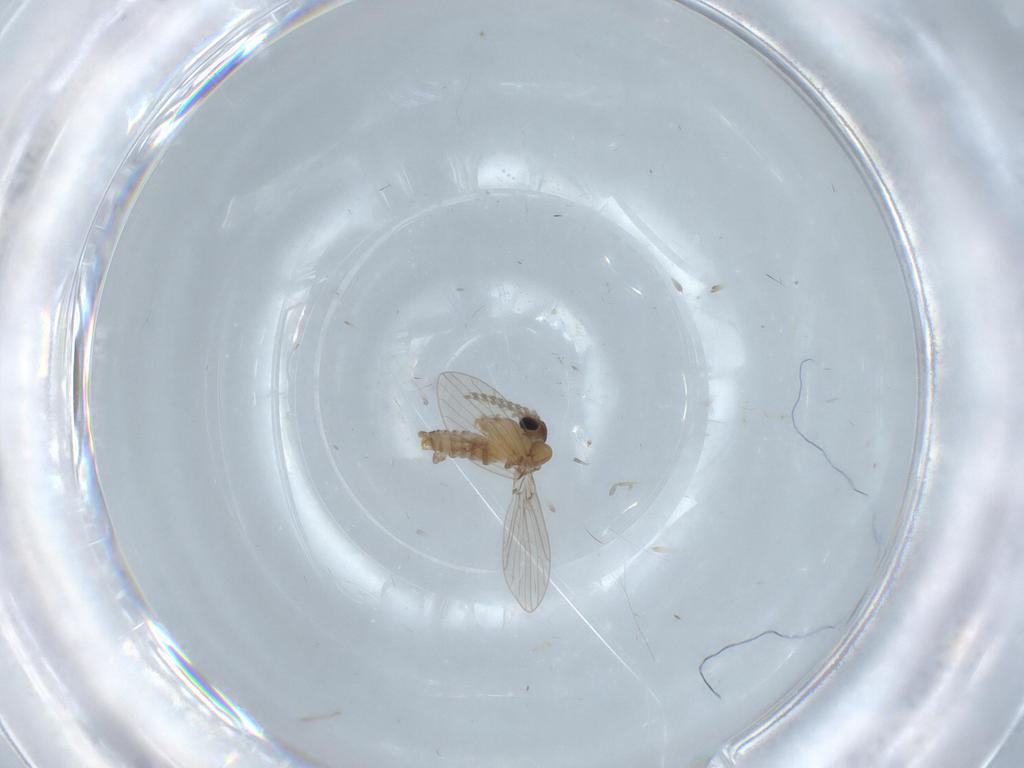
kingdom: Animalia
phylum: Arthropoda
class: Insecta
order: Diptera
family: Psychodidae
